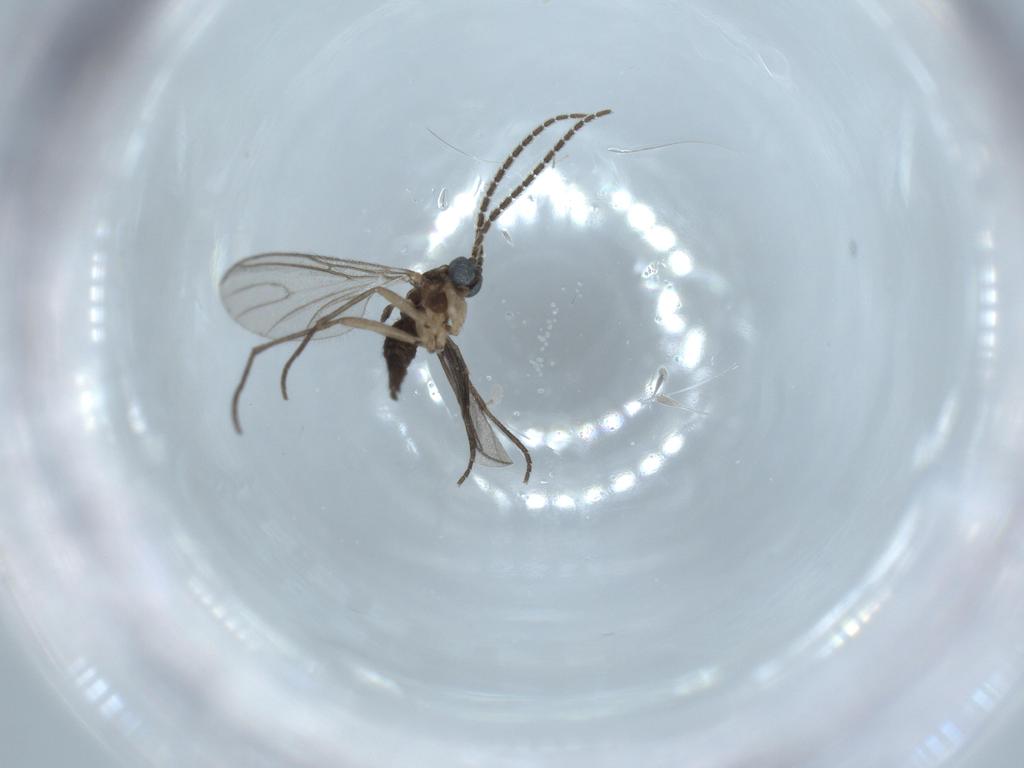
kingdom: Animalia
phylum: Arthropoda
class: Insecta
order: Diptera
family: Sciaridae
